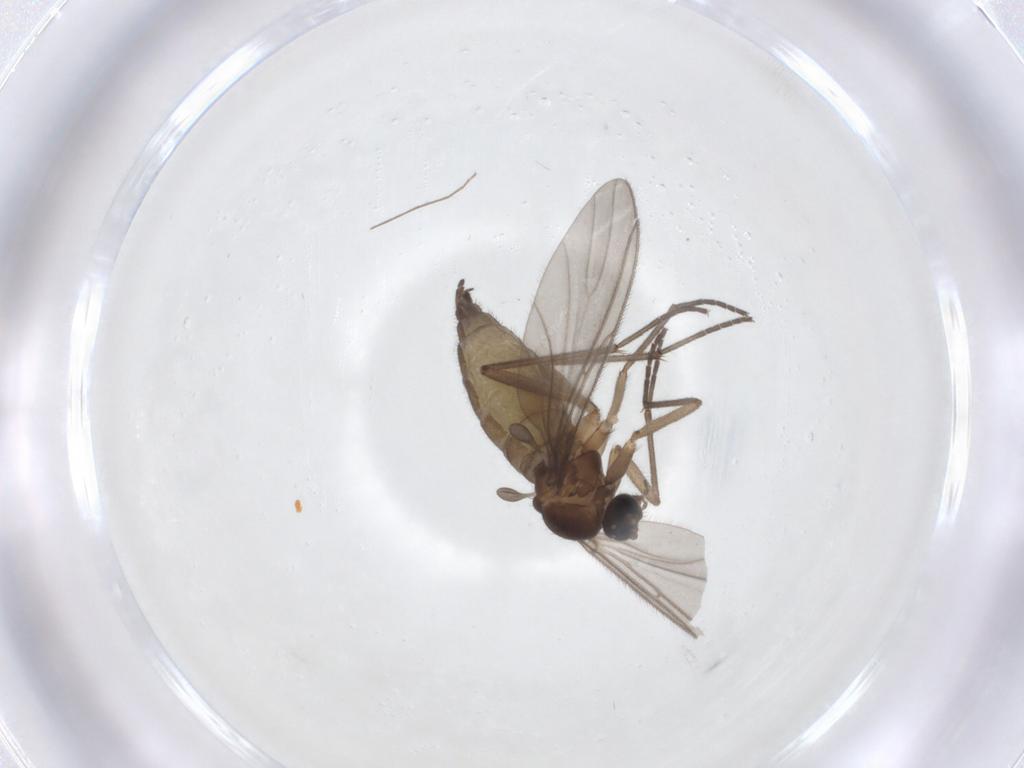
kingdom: Animalia
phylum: Arthropoda
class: Insecta
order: Diptera
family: Sciaridae
